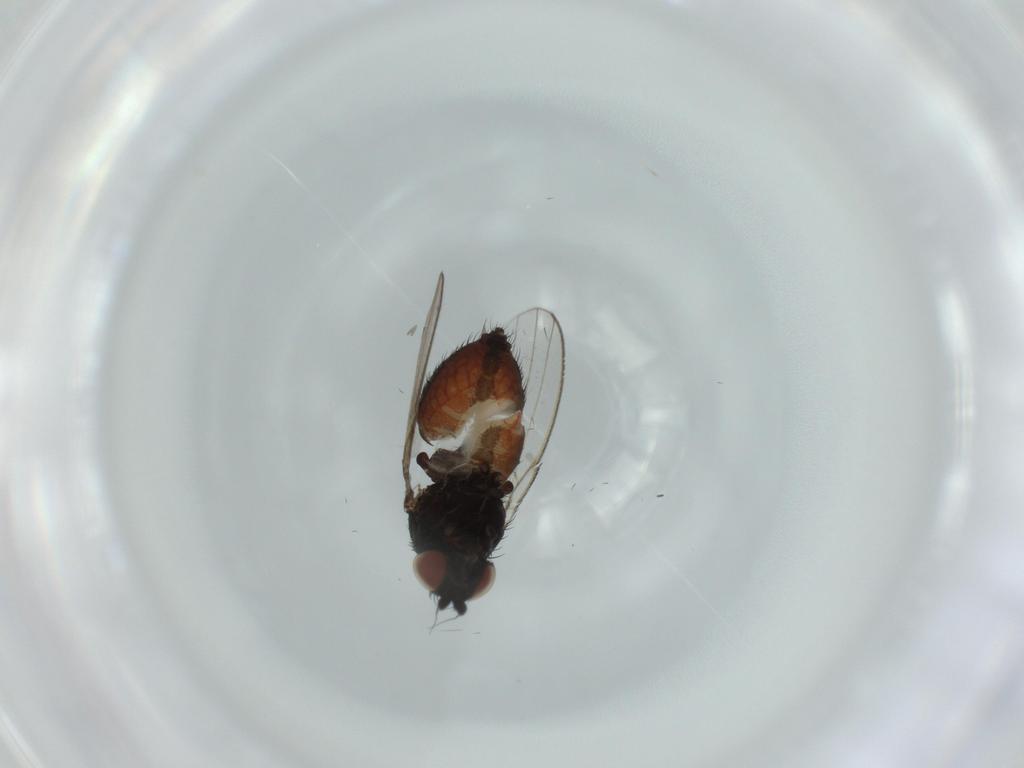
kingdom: Animalia
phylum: Arthropoda
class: Insecta
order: Diptera
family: Milichiidae
